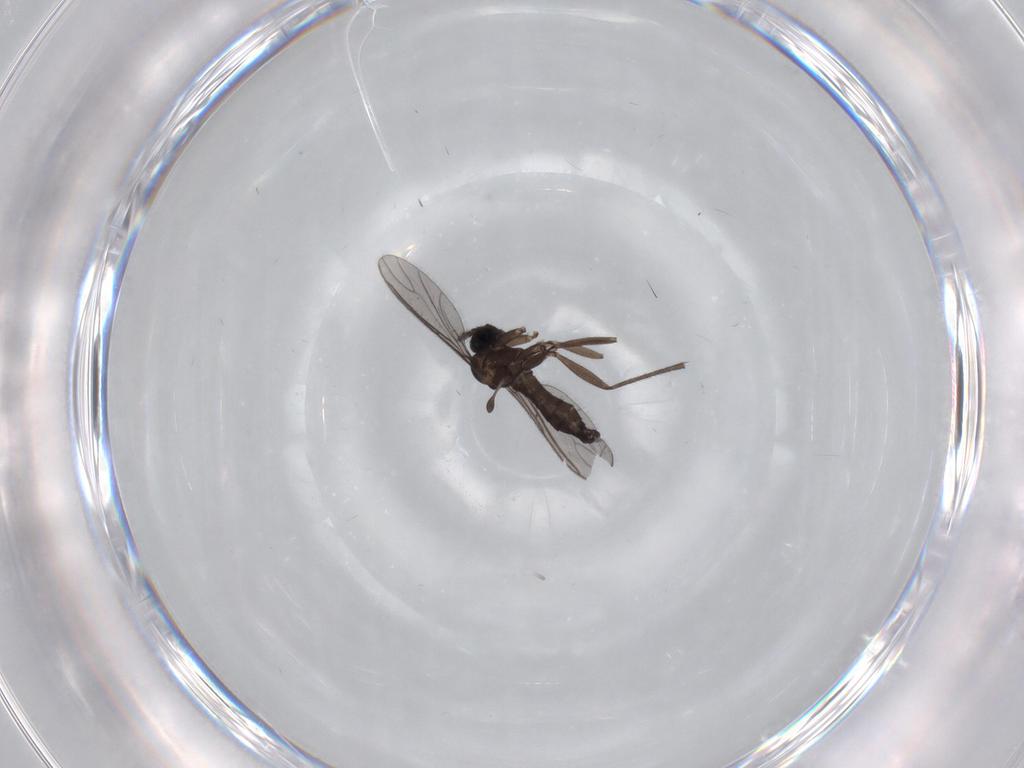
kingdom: Animalia
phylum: Arthropoda
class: Insecta
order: Diptera
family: Sciaridae
